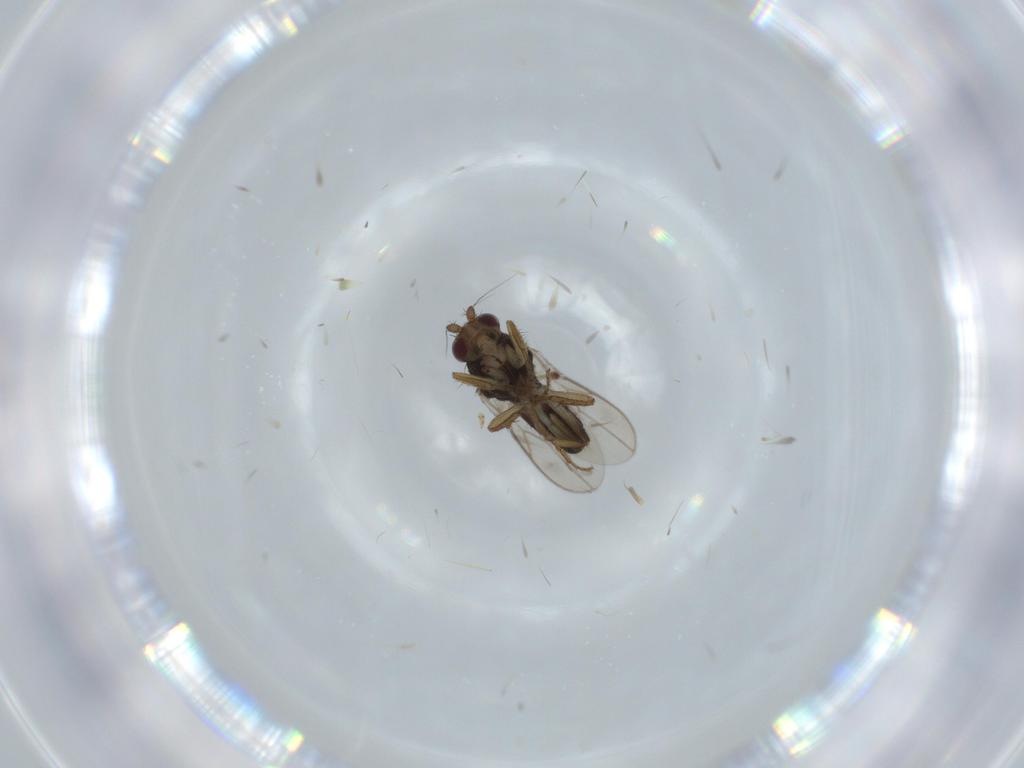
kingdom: Animalia
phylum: Arthropoda
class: Insecta
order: Diptera
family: Sphaeroceridae
